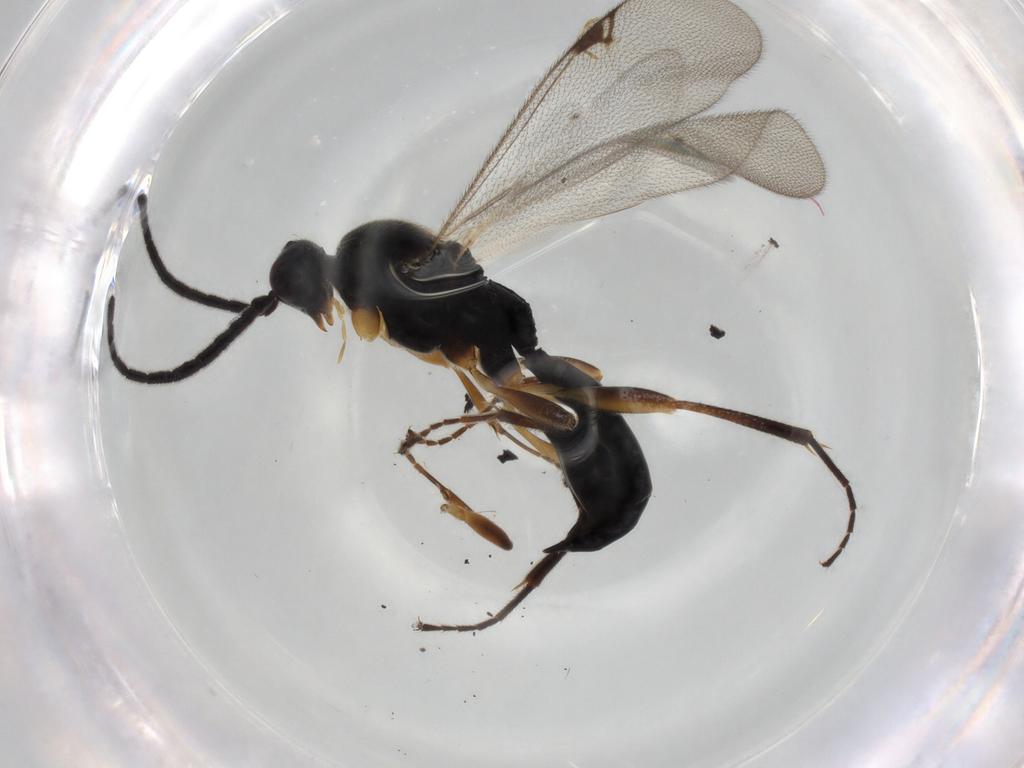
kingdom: Animalia
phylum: Arthropoda
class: Insecta
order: Hymenoptera
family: Proctotrupidae
